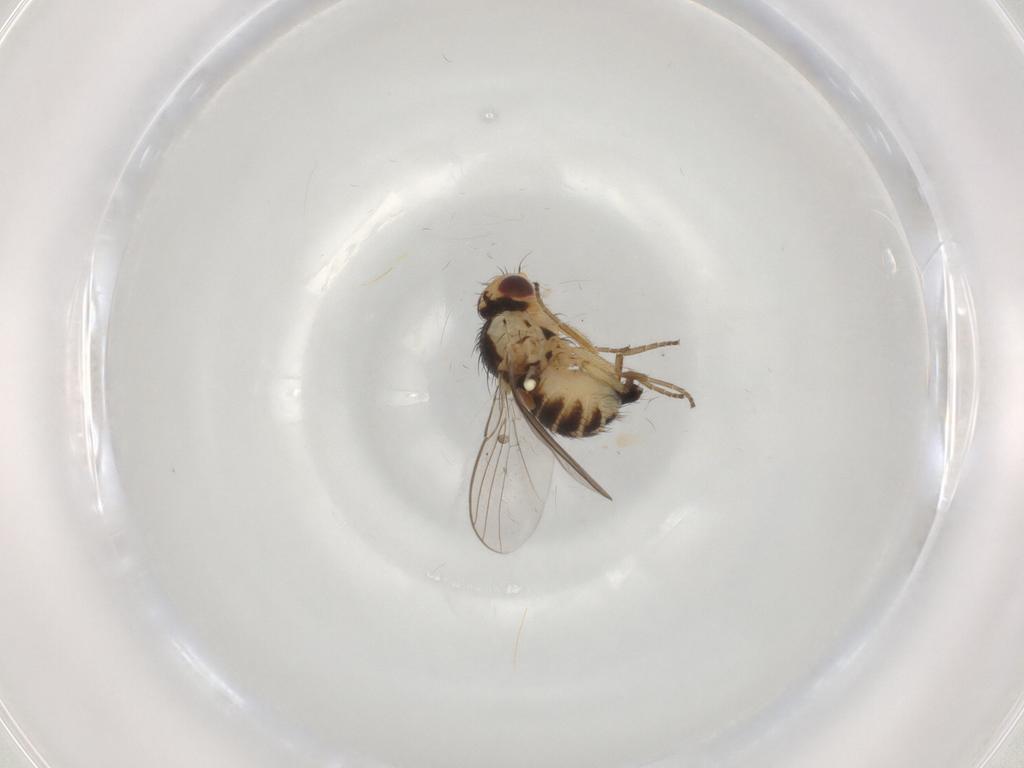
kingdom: Animalia
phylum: Arthropoda
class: Insecta
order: Diptera
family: Agromyzidae
